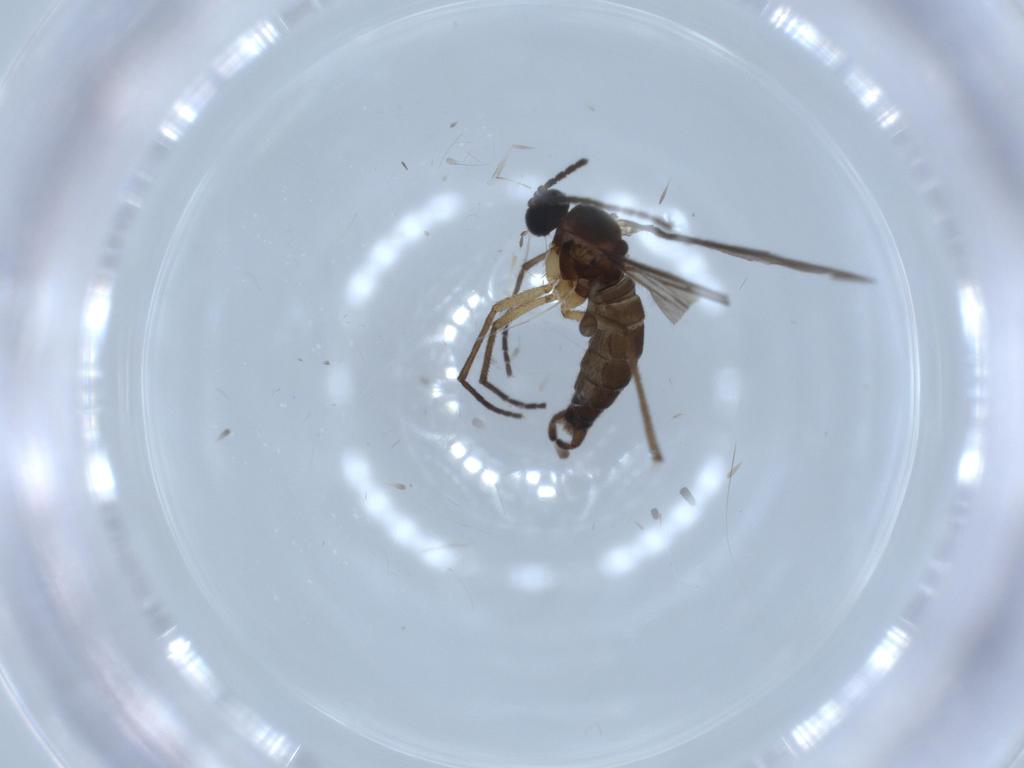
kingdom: Animalia
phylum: Arthropoda
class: Insecta
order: Diptera
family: Sciaridae
